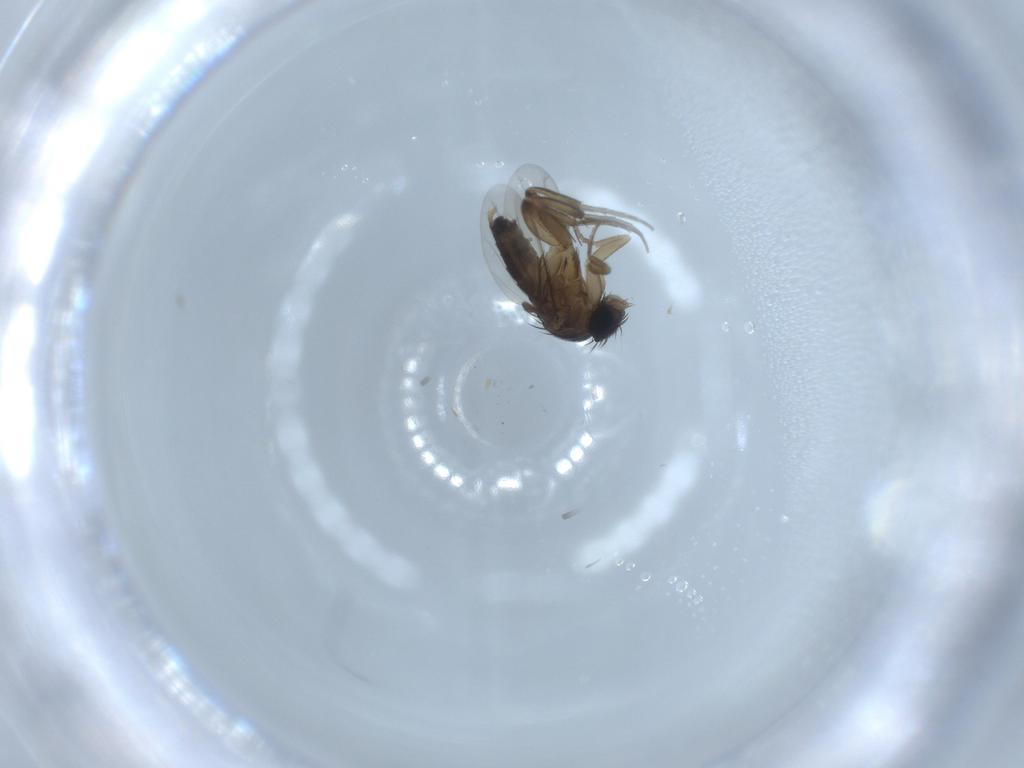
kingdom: Animalia
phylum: Arthropoda
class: Insecta
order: Diptera
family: Phoridae
